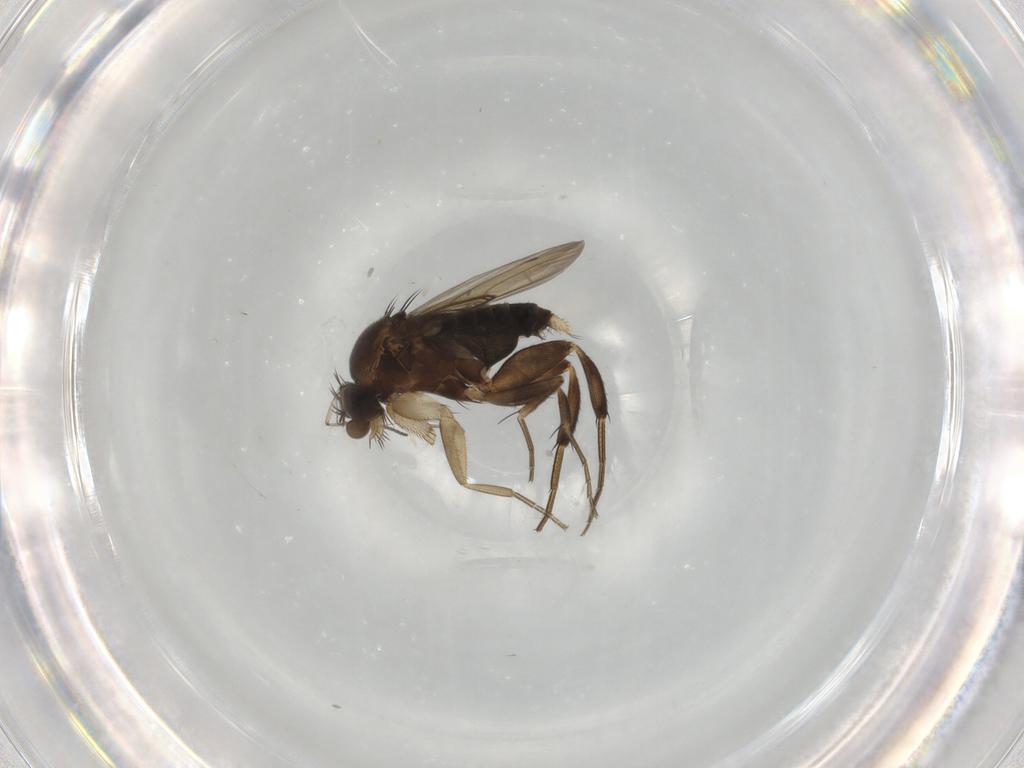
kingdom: Animalia
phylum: Arthropoda
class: Insecta
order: Diptera
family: Phoridae
